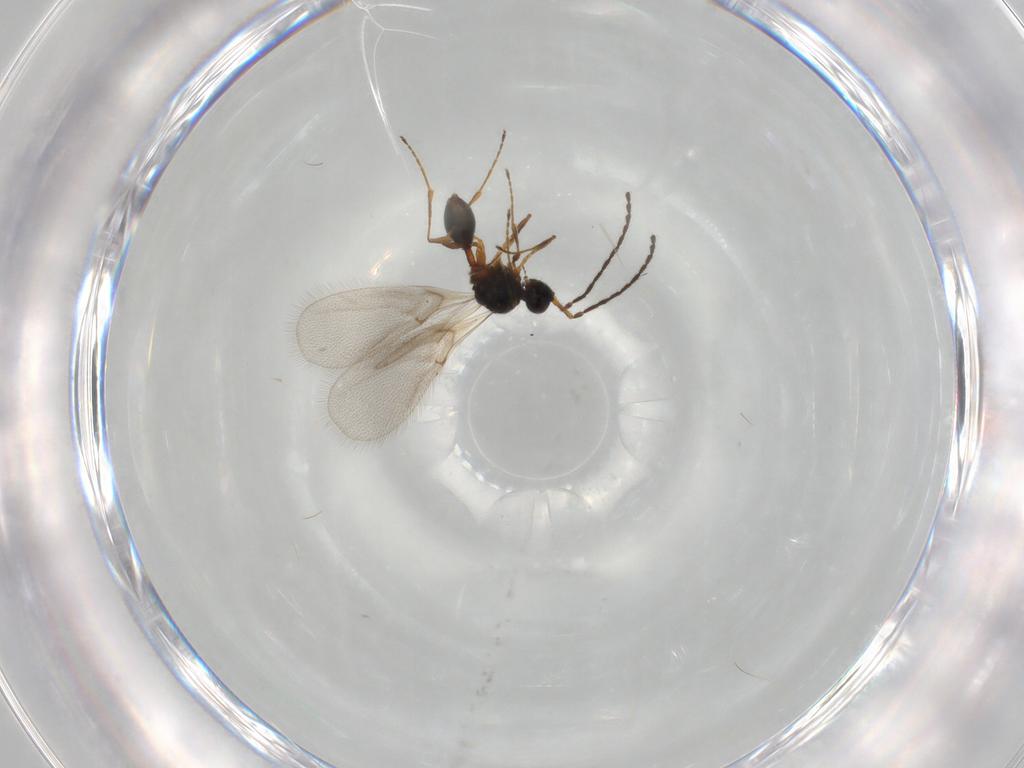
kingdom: Animalia
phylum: Arthropoda
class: Insecta
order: Hymenoptera
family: Diapriidae
